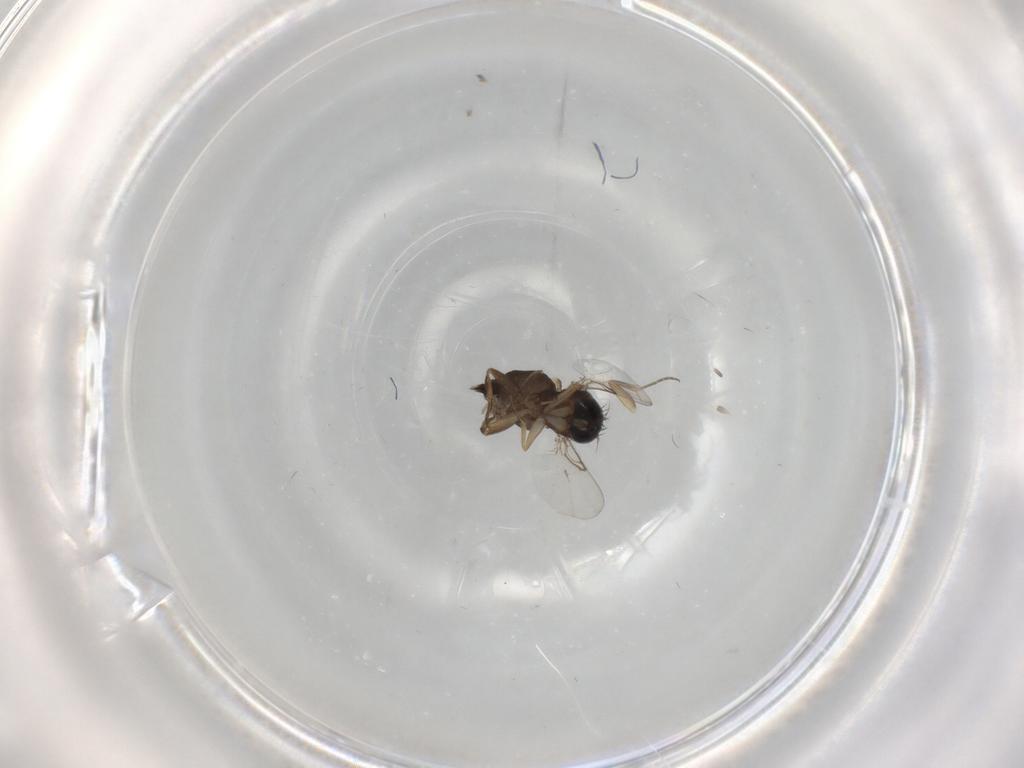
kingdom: Animalia
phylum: Arthropoda
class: Insecta
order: Diptera
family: Phoridae
